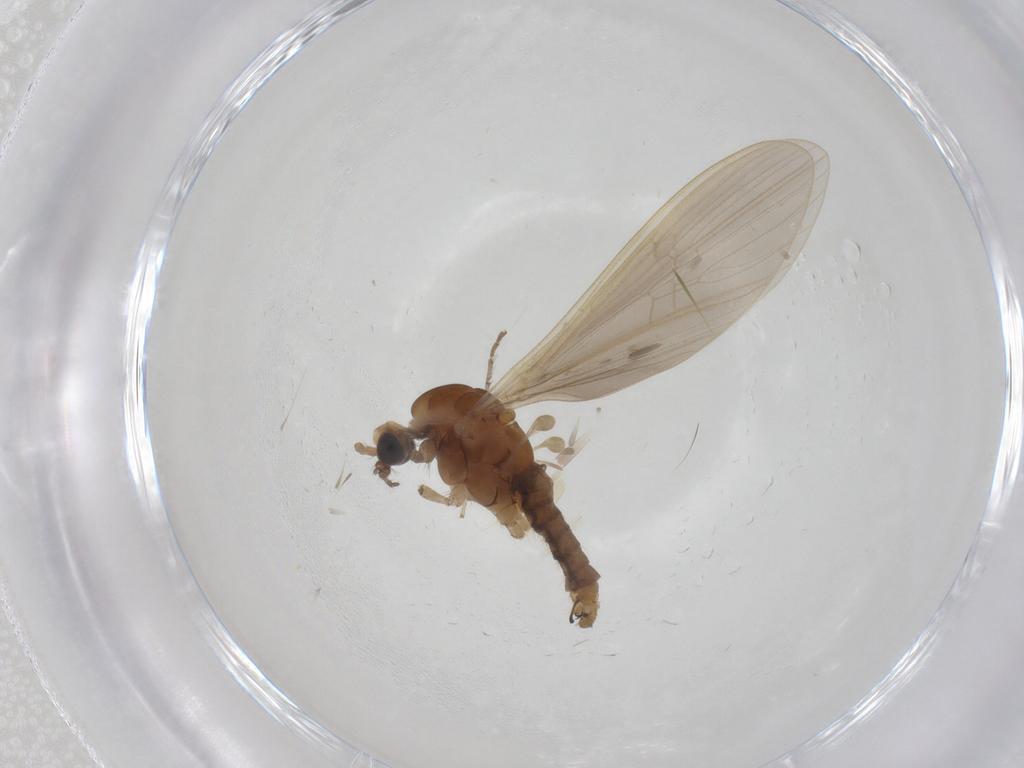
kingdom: Animalia
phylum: Arthropoda
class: Insecta
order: Diptera
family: Limoniidae
